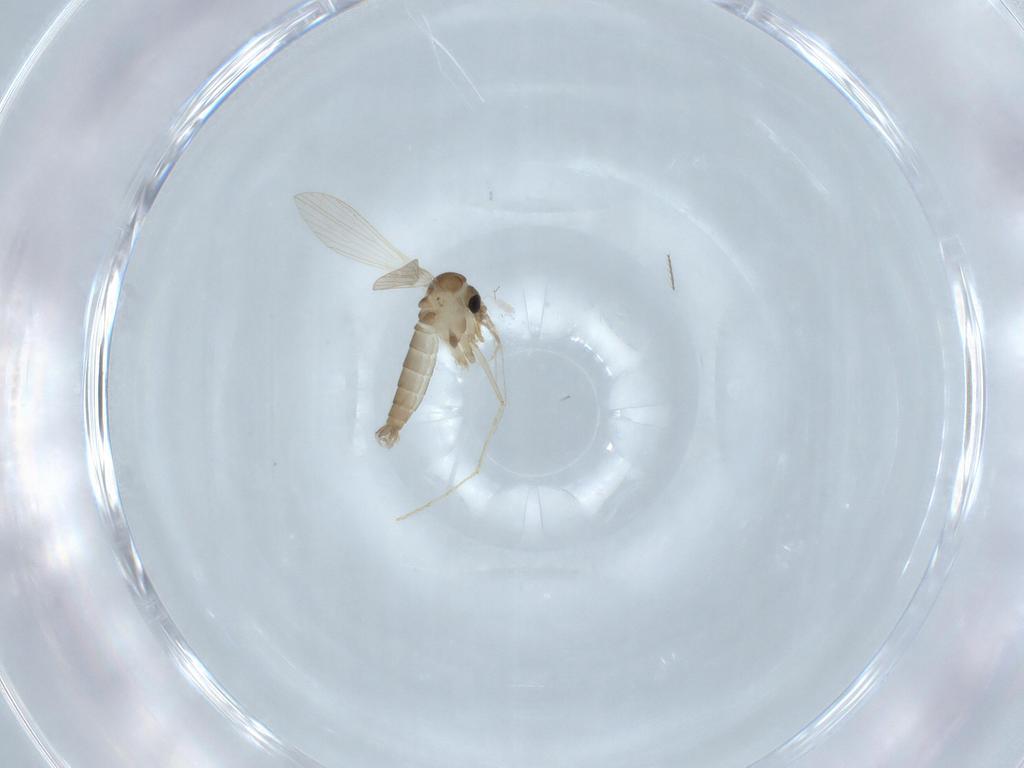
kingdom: Animalia
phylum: Arthropoda
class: Insecta
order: Diptera
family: Psychodidae
